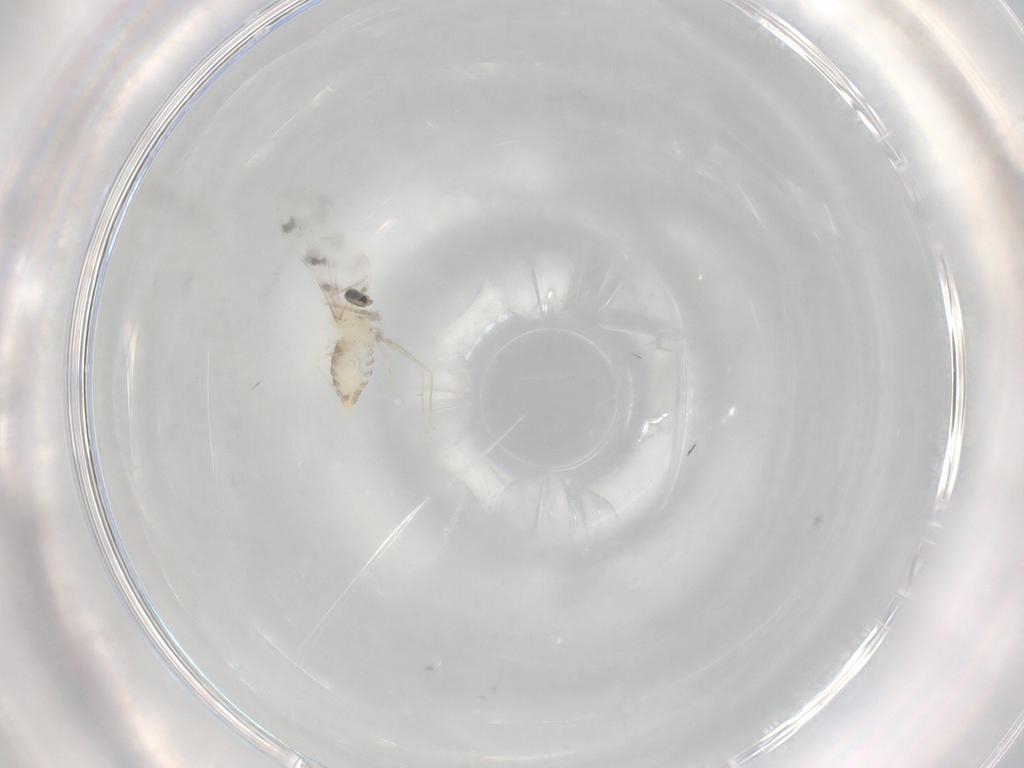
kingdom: Animalia
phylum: Arthropoda
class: Insecta
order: Diptera
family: Cecidomyiidae
